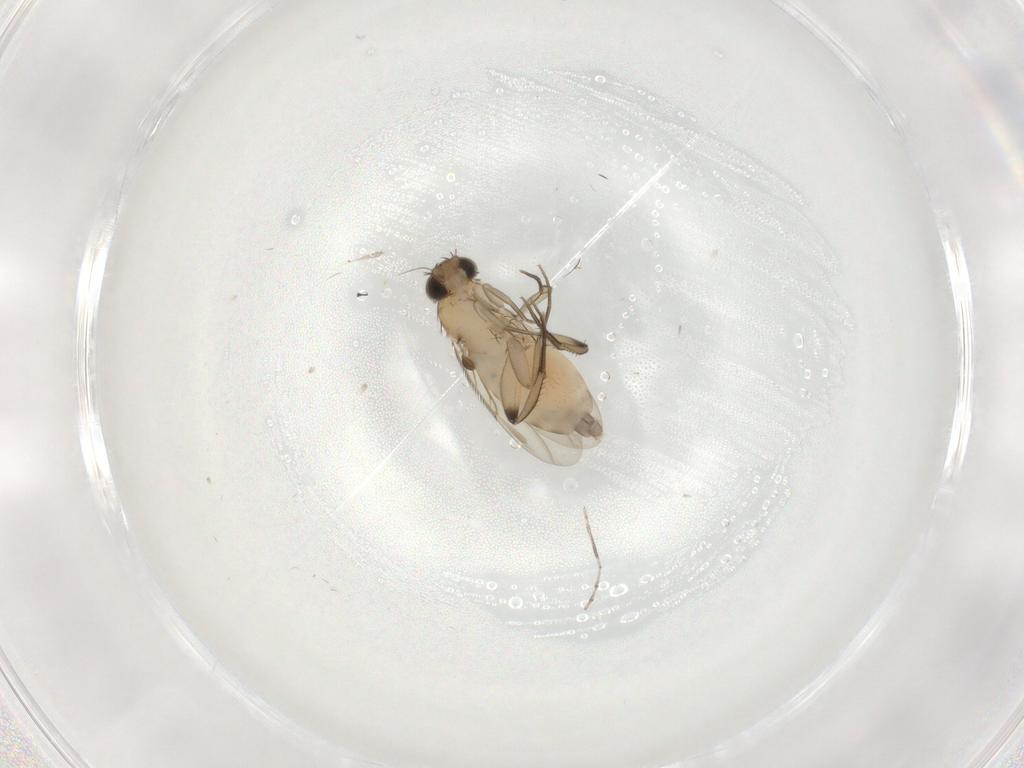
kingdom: Animalia
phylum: Arthropoda
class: Insecta
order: Diptera
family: Phoridae
